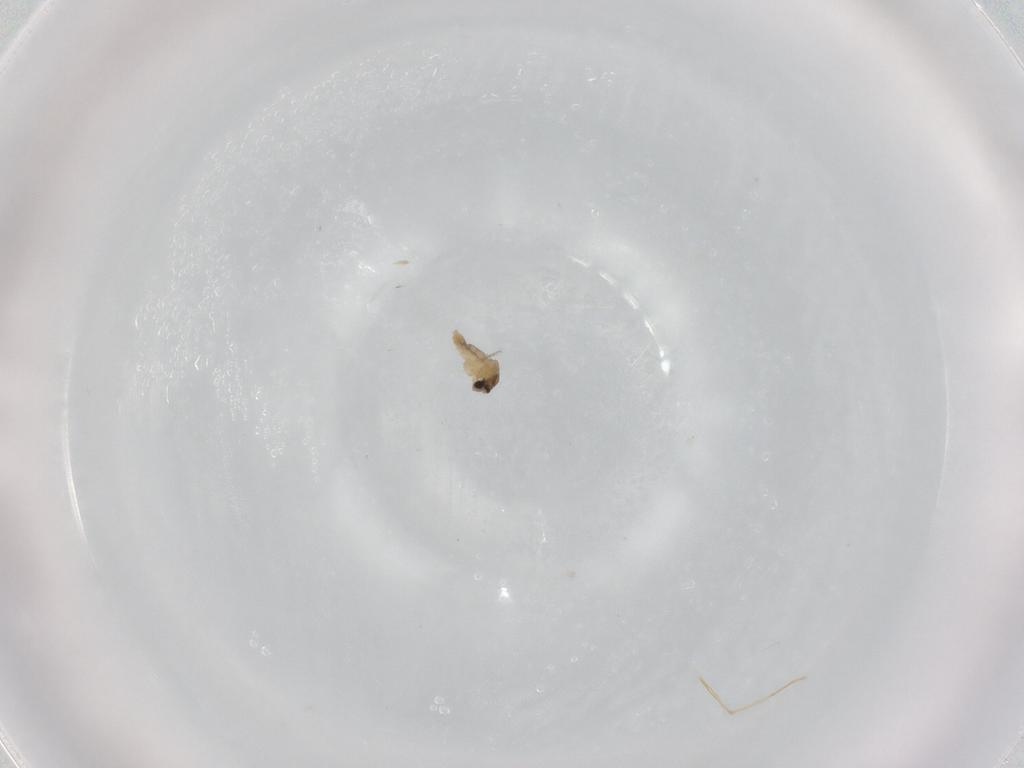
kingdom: Animalia
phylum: Arthropoda
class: Insecta
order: Diptera
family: Cecidomyiidae
